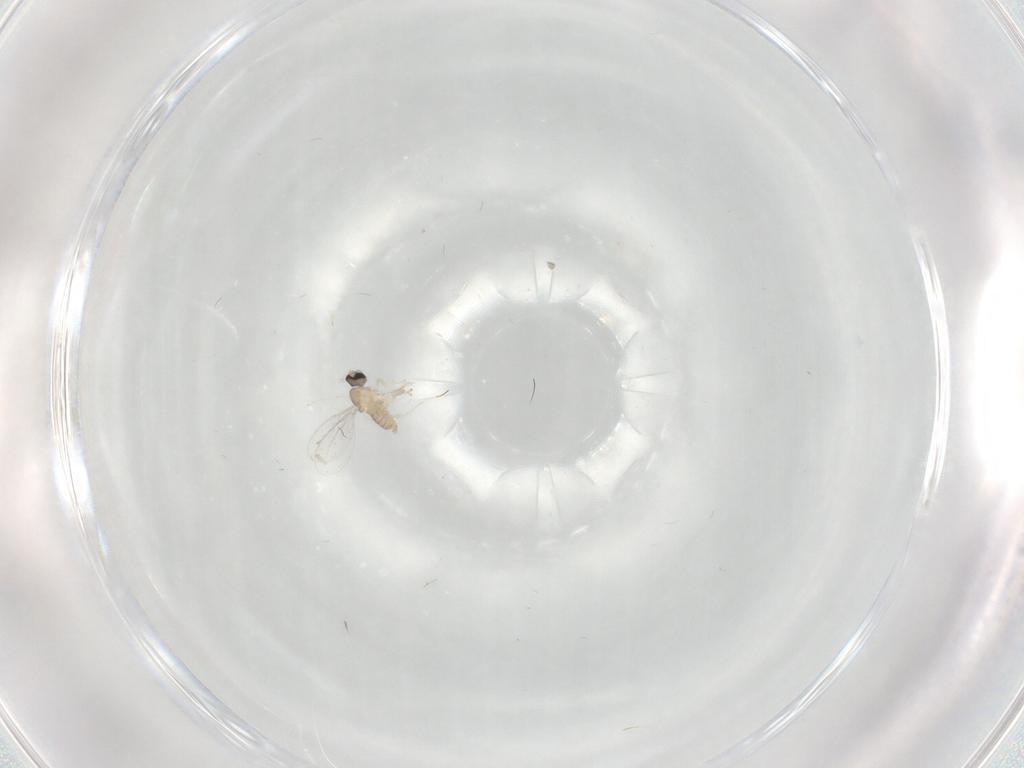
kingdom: Animalia
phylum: Arthropoda
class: Insecta
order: Diptera
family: Cecidomyiidae
